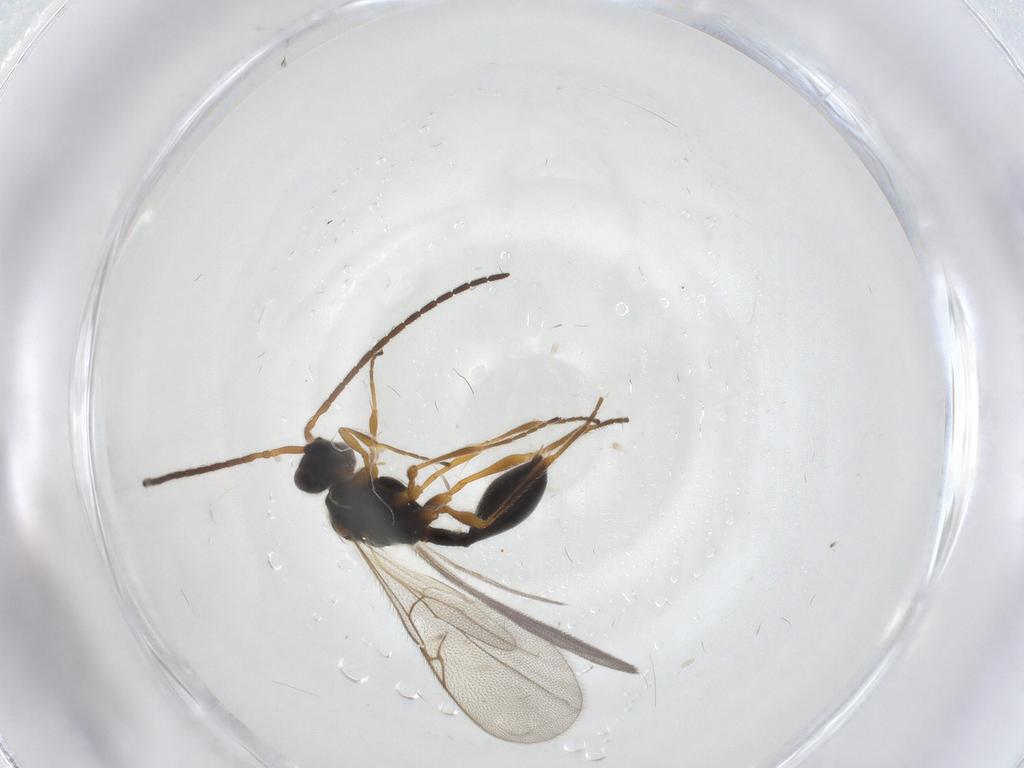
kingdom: Animalia
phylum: Arthropoda
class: Insecta
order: Hymenoptera
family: Diapriidae
